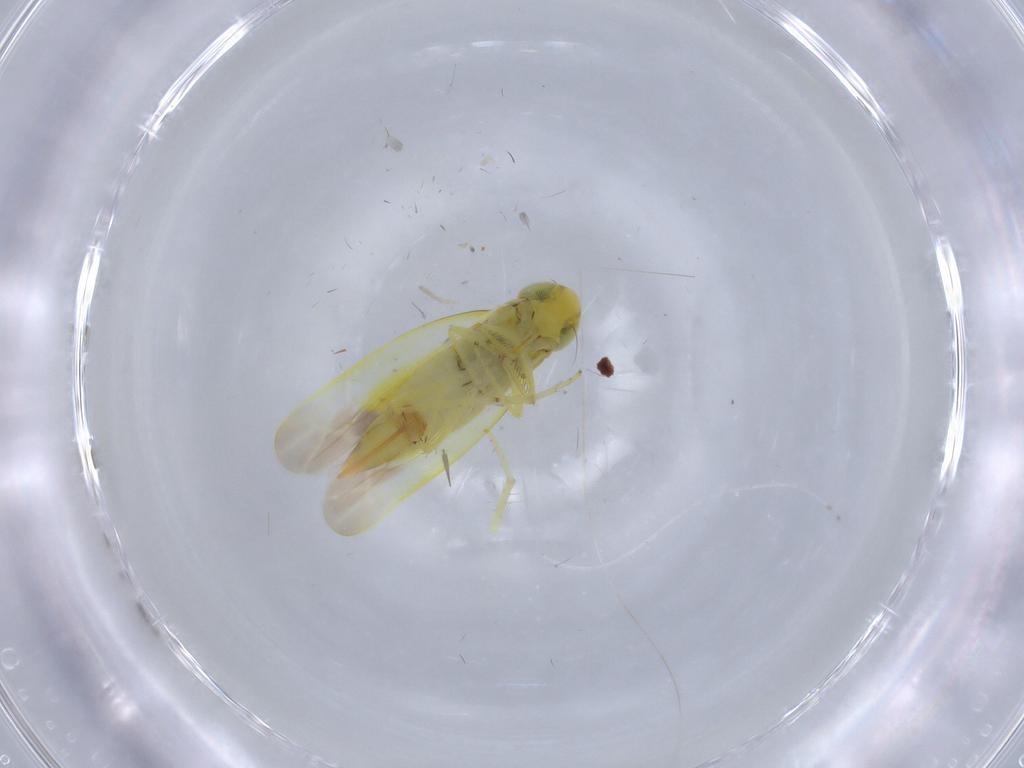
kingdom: Animalia
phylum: Arthropoda
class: Insecta
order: Hemiptera
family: Cicadellidae
